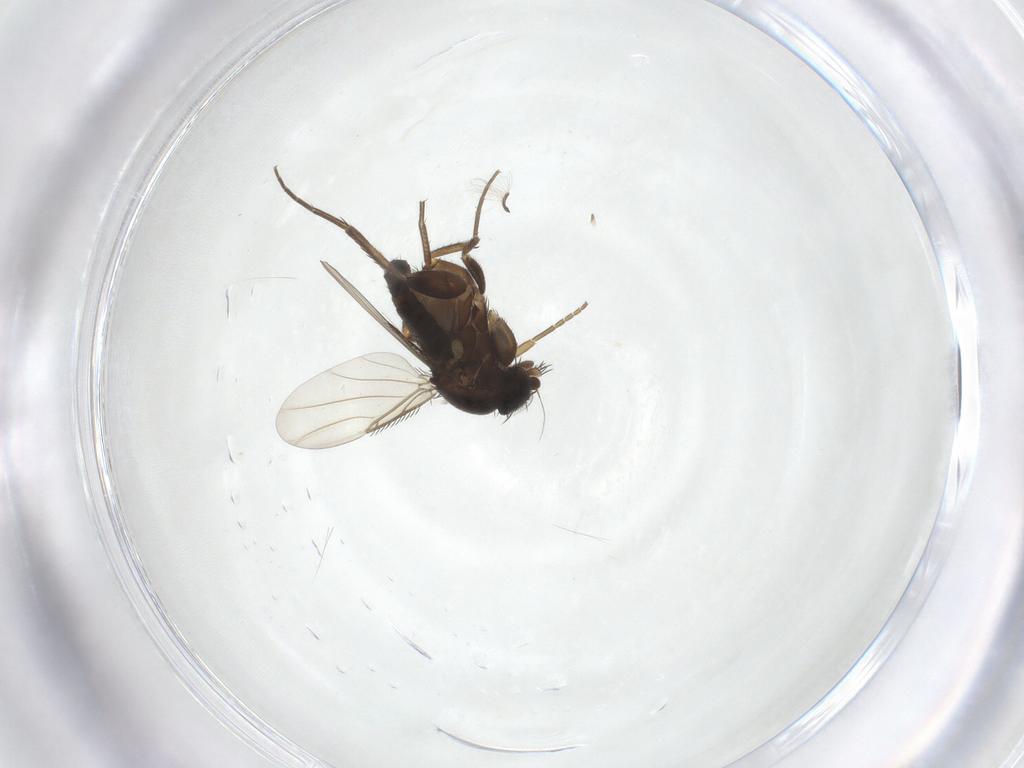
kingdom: Animalia
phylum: Arthropoda
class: Insecta
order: Diptera
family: Phoridae
